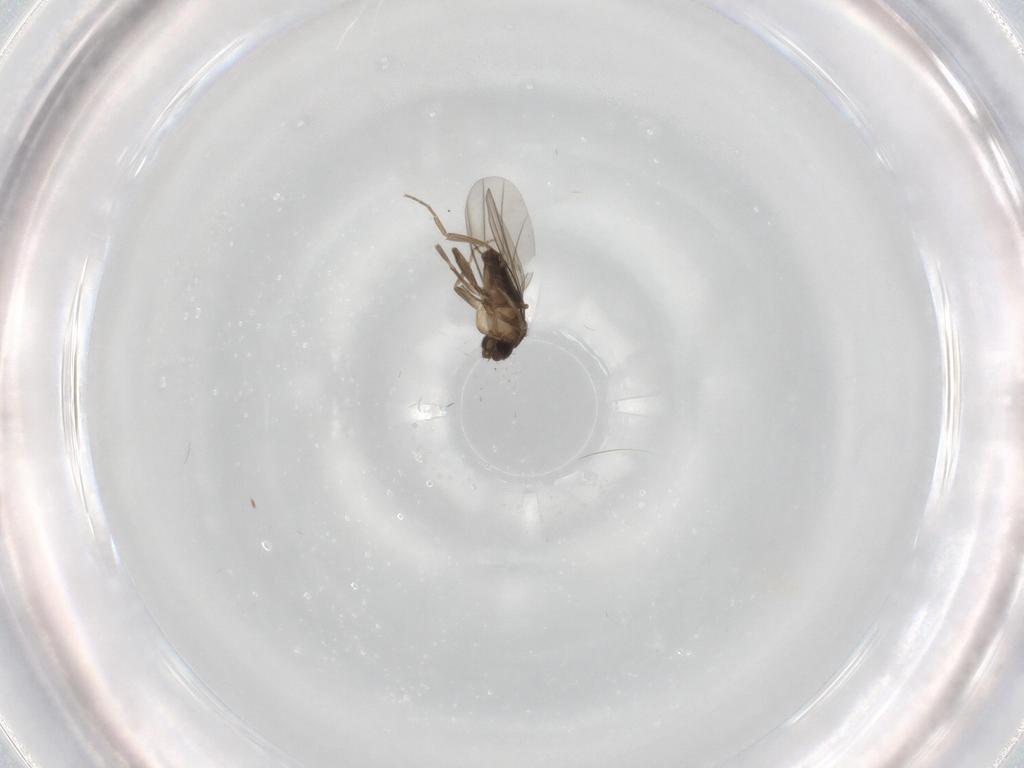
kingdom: Animalia
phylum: Arthropoda
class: Insecta
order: Diptera
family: Phoridae
